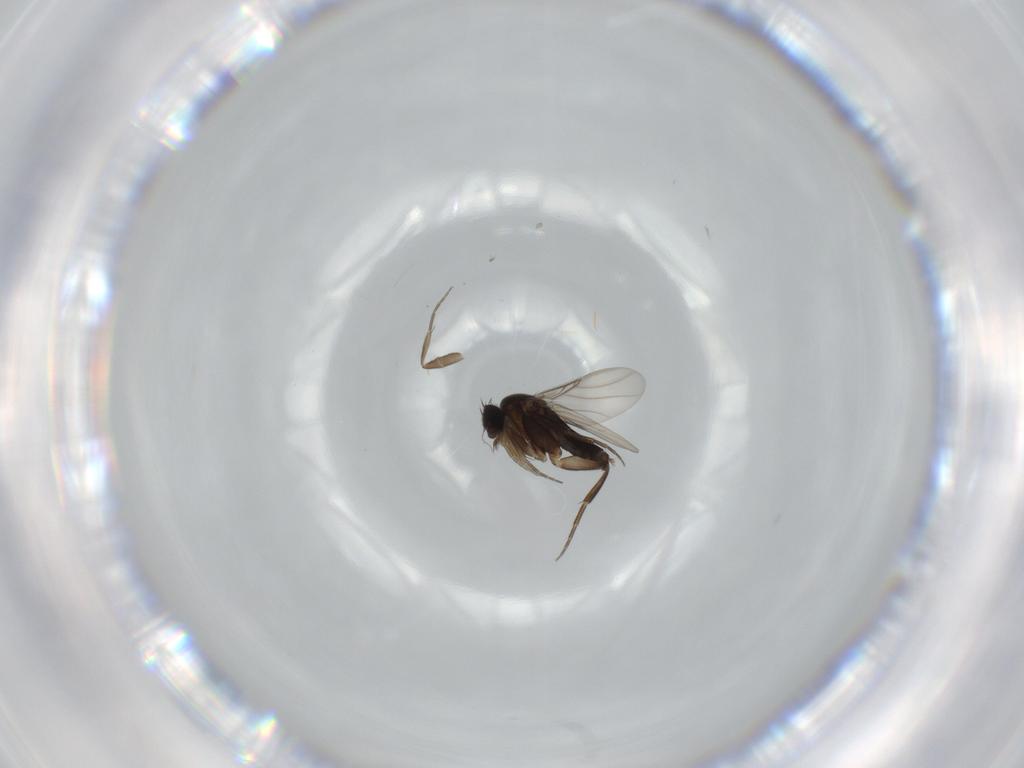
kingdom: Animalia
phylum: Arthropoda
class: Insecta
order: Diptera
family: Phoridae
